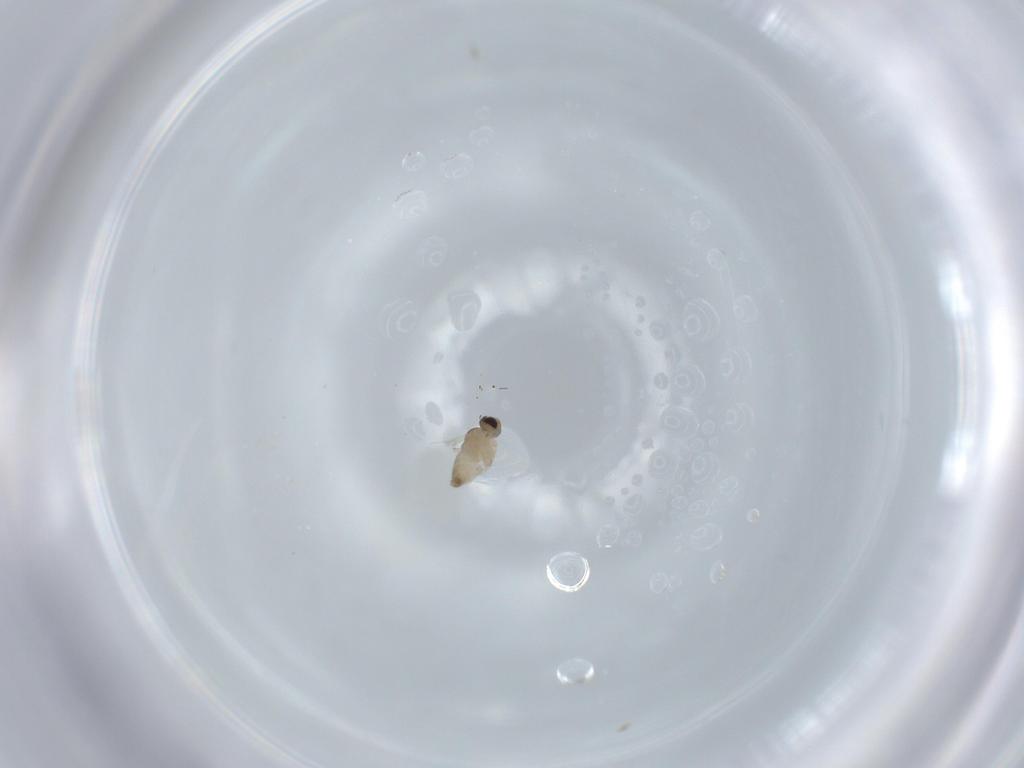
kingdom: Animalia
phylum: Arthropoda
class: Insecta
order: Diptera
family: Cecidomyiidae
